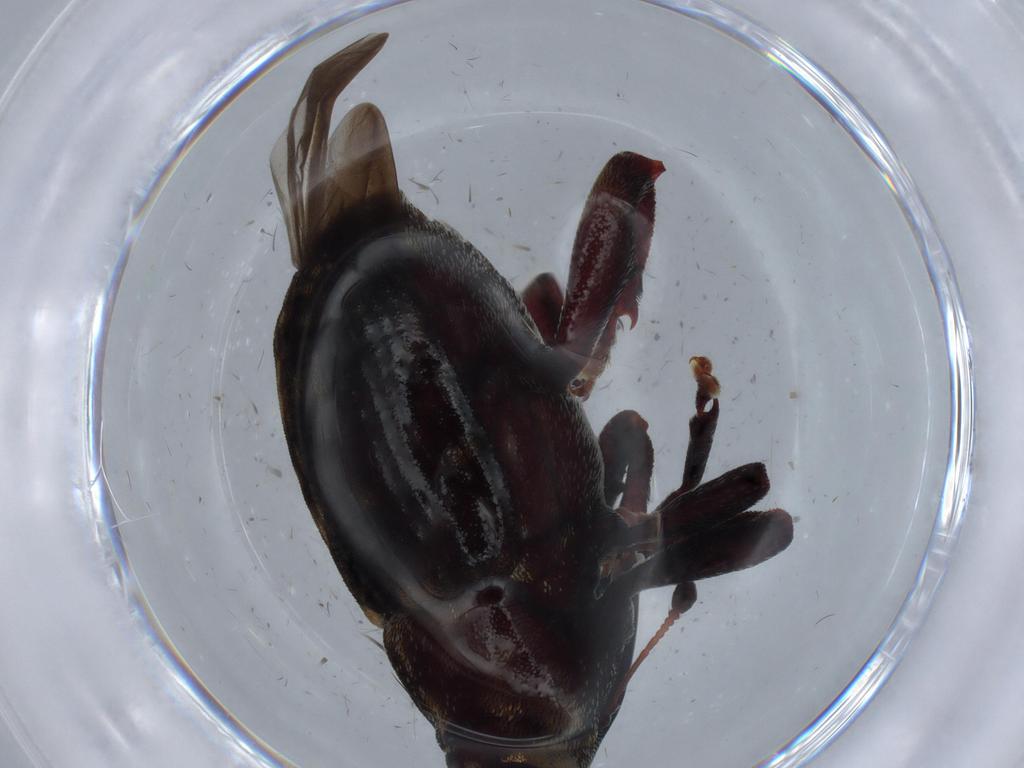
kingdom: Animalia
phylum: Arthropoda
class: Insecta
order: Coleoptera
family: Curculionidae
